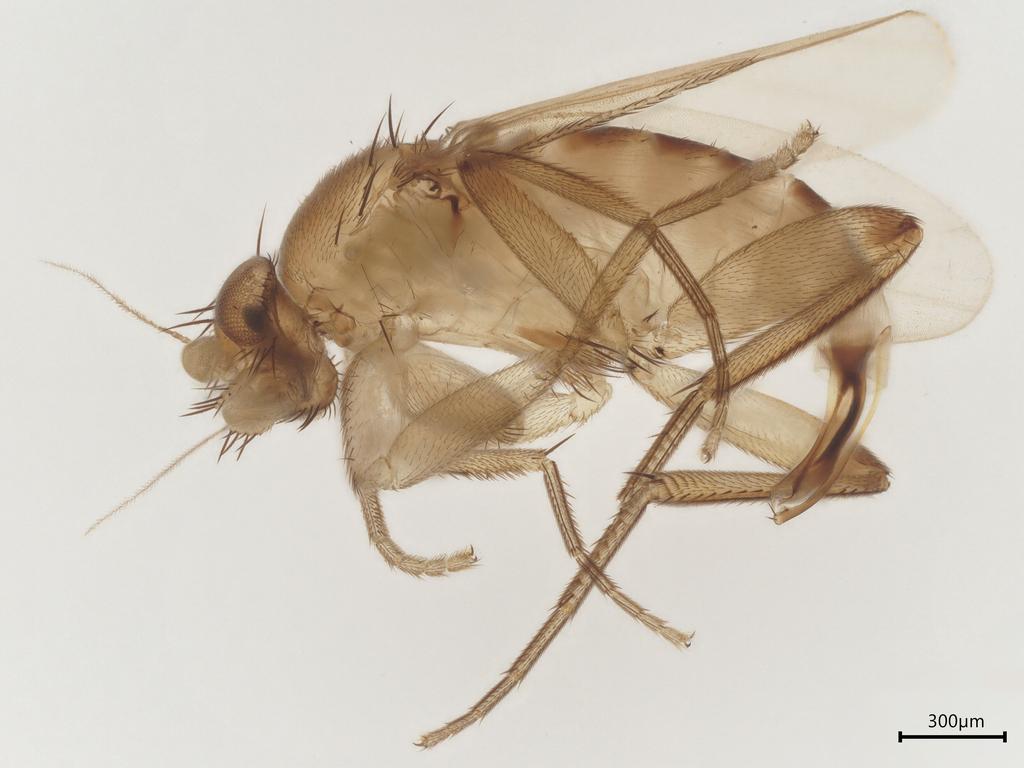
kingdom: Animalia
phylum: Arthropoda
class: Insecta
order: Diptera
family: Phoridae
